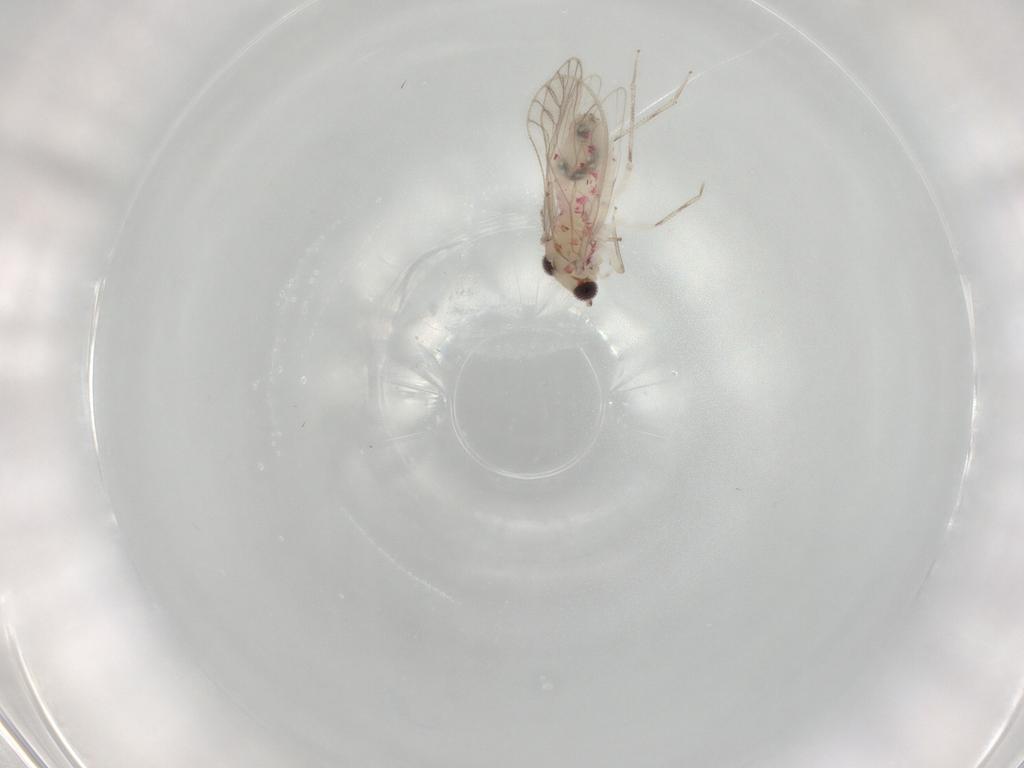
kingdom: Animalia
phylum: Arthropoda
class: Insecta
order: Psocodea
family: Caeciliusidae
